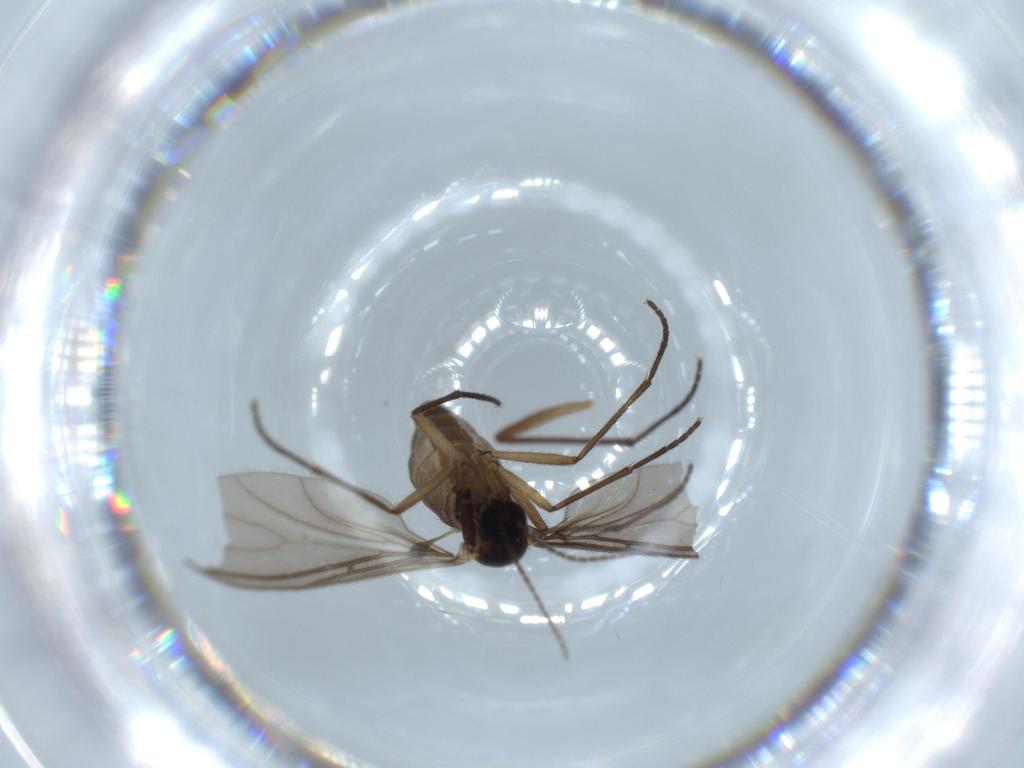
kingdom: Animalia
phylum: Arthropoda
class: Insecta
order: Diptera
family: Sciaridae
